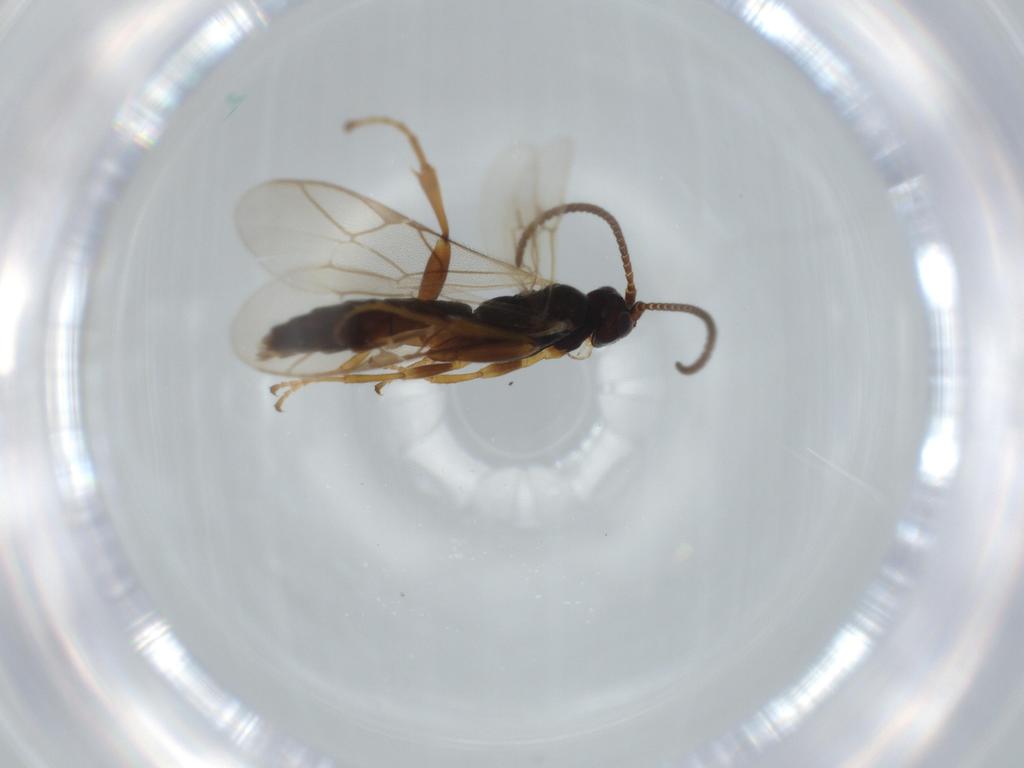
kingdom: Animalia
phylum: Arthropoda
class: Insecta
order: Hymenoptera
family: Ichneumonidae
